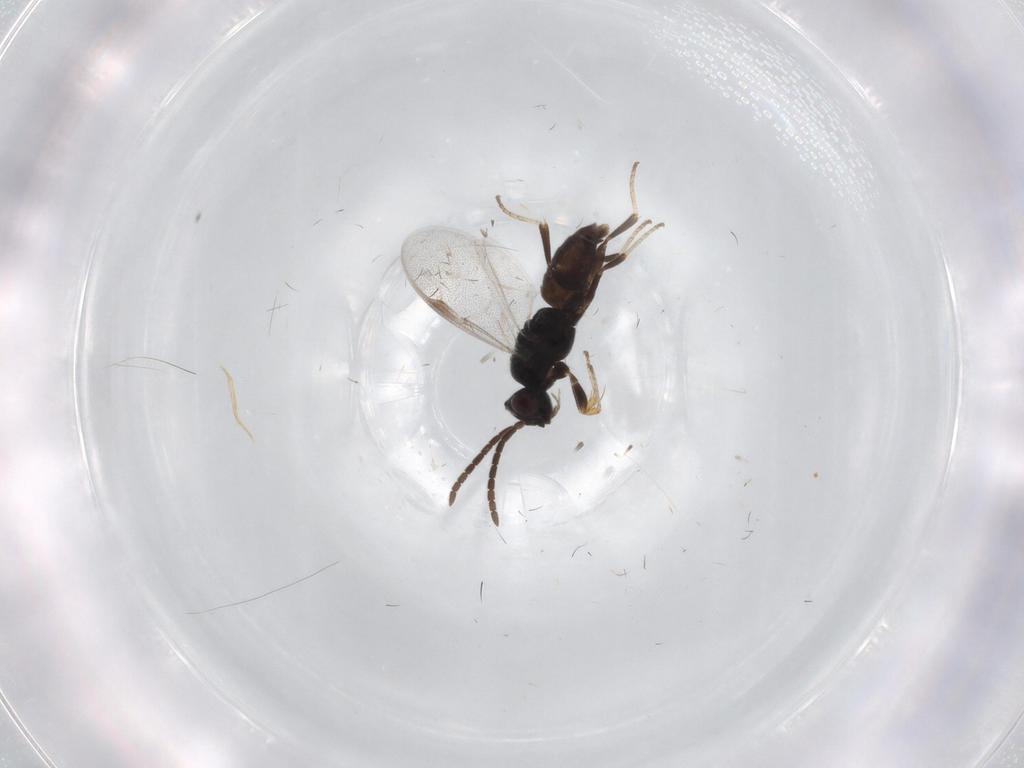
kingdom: Animalia
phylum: Arthropoda
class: Insecta
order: Hymenoptera
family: Dryinidae
